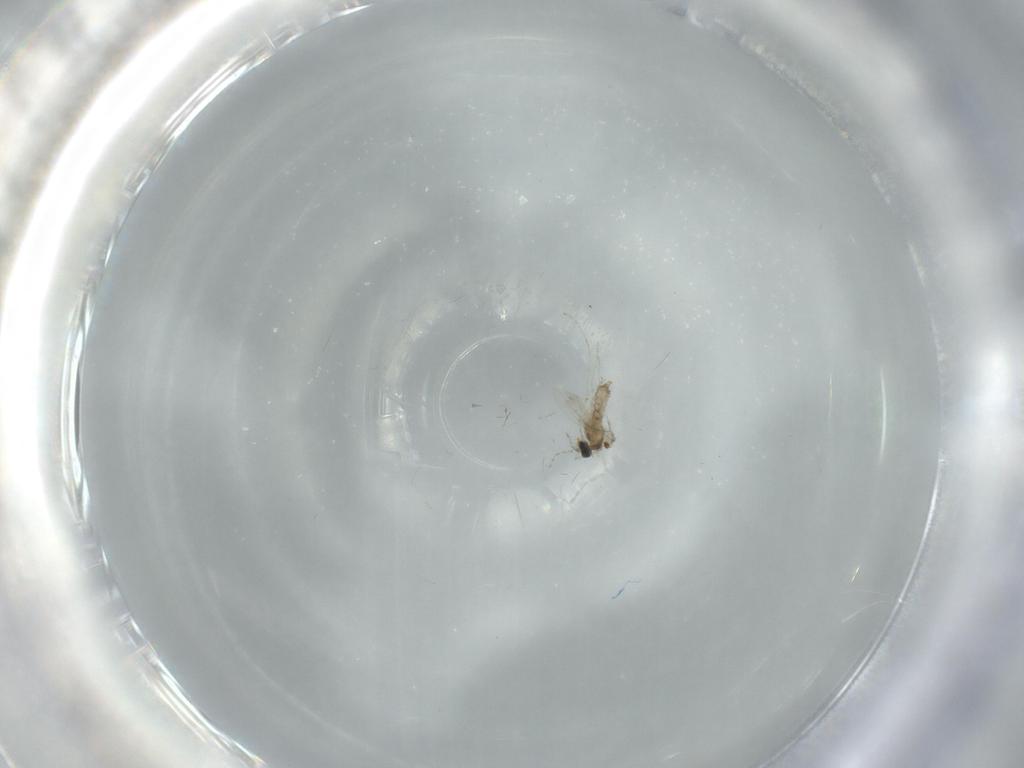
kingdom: Animalia
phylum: Arthropoda
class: Insecta
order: Diptera
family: Cecidomyiidae
